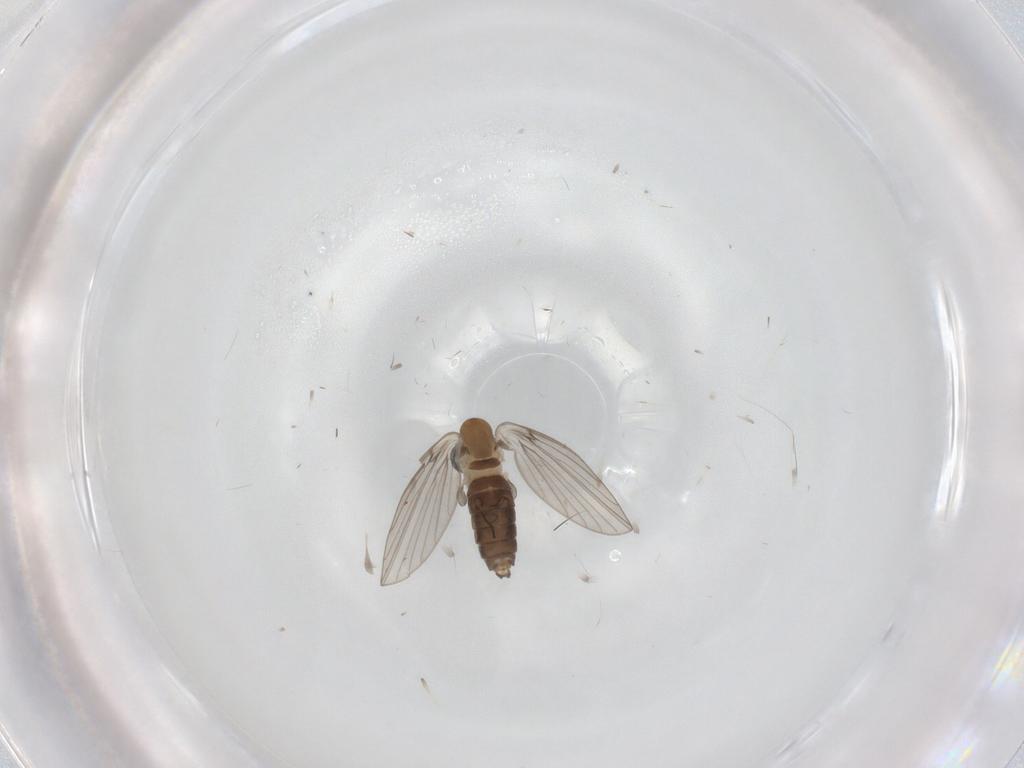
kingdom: Animalia
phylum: Arthropoda
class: Insecta
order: Diptera
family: Psychodidae
